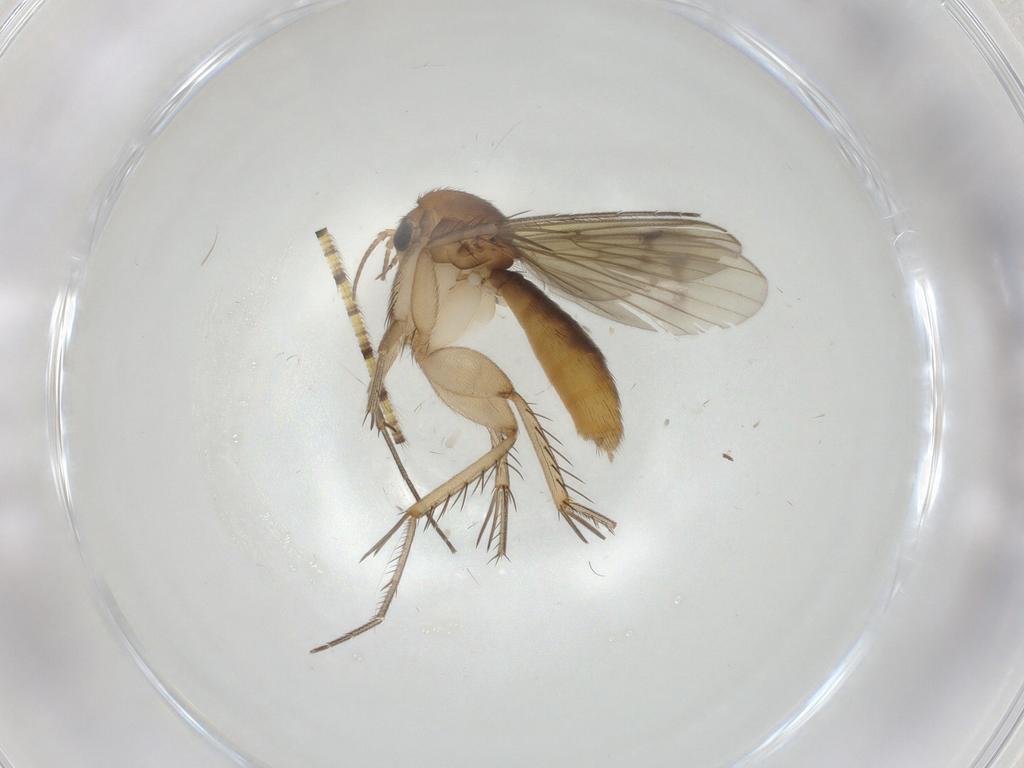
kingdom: Animalia
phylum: Arthropoda
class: Insecta
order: Diptera
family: Mycetophilidae
